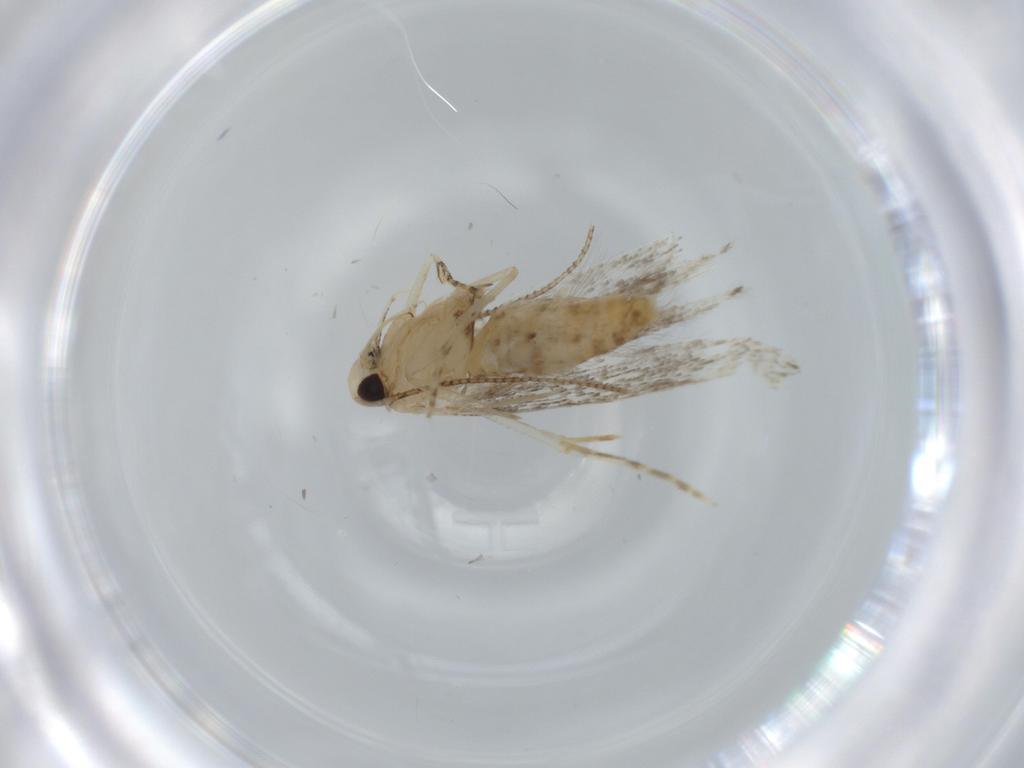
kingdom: Animalia
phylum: Arthropoda
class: Insecta
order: Lepidoptera
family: Cosmopterigidae
